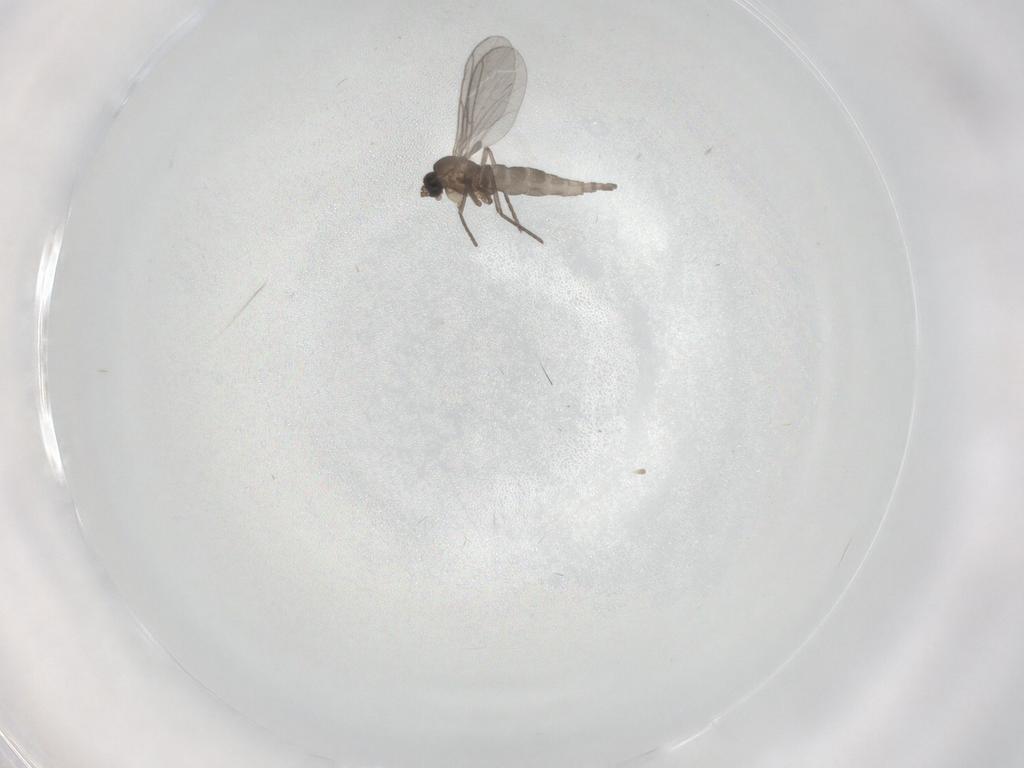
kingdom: Animalia
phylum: Arthropoda
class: Insecta
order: Diptera
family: Sciaridae
